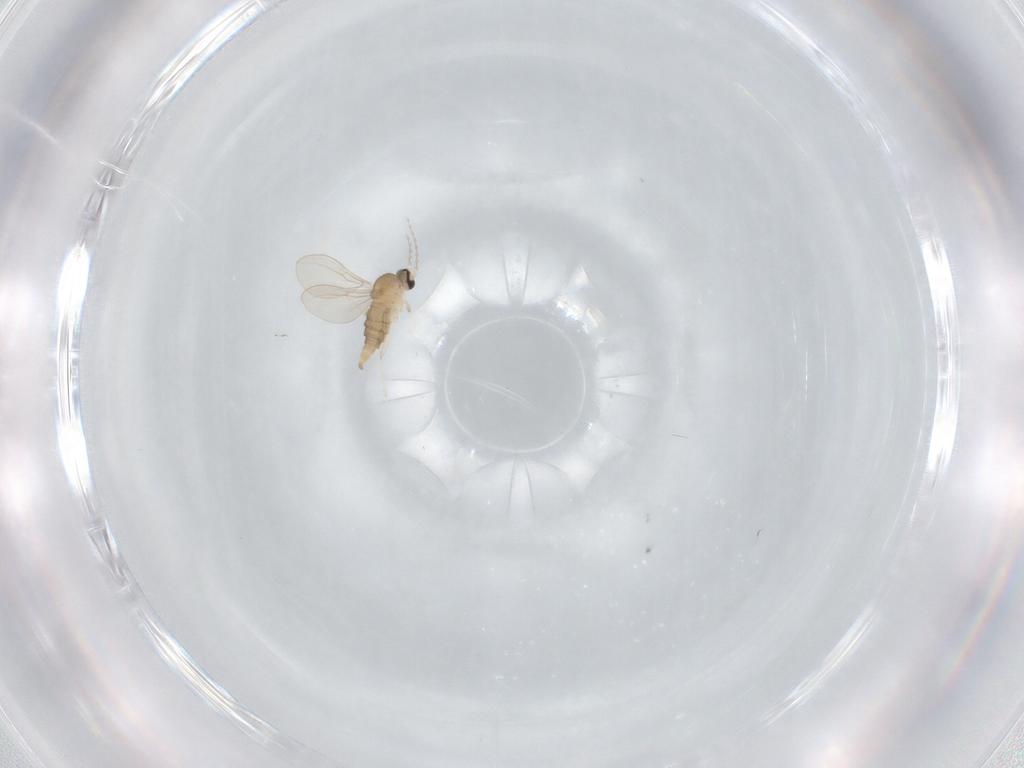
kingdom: Animalia
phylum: Arthropoda
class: Insecta
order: Diptera
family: Cecidomyiidae
